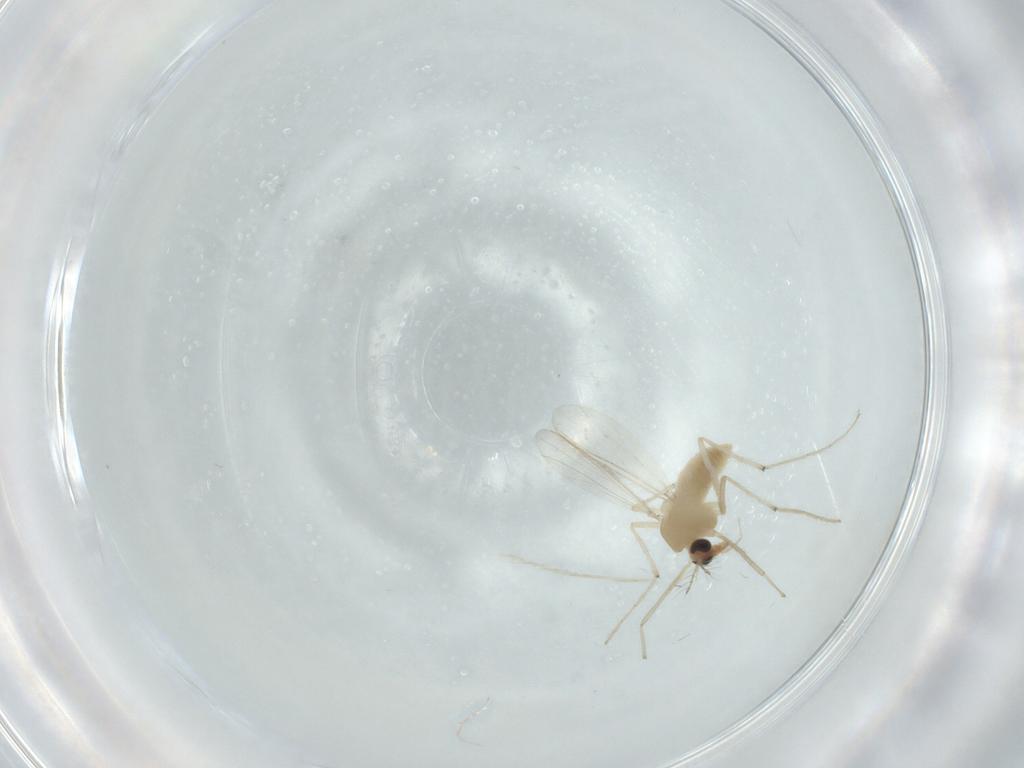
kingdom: Animalia
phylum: Arthropoda
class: Insecta
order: Diptera
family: Chironomidae
